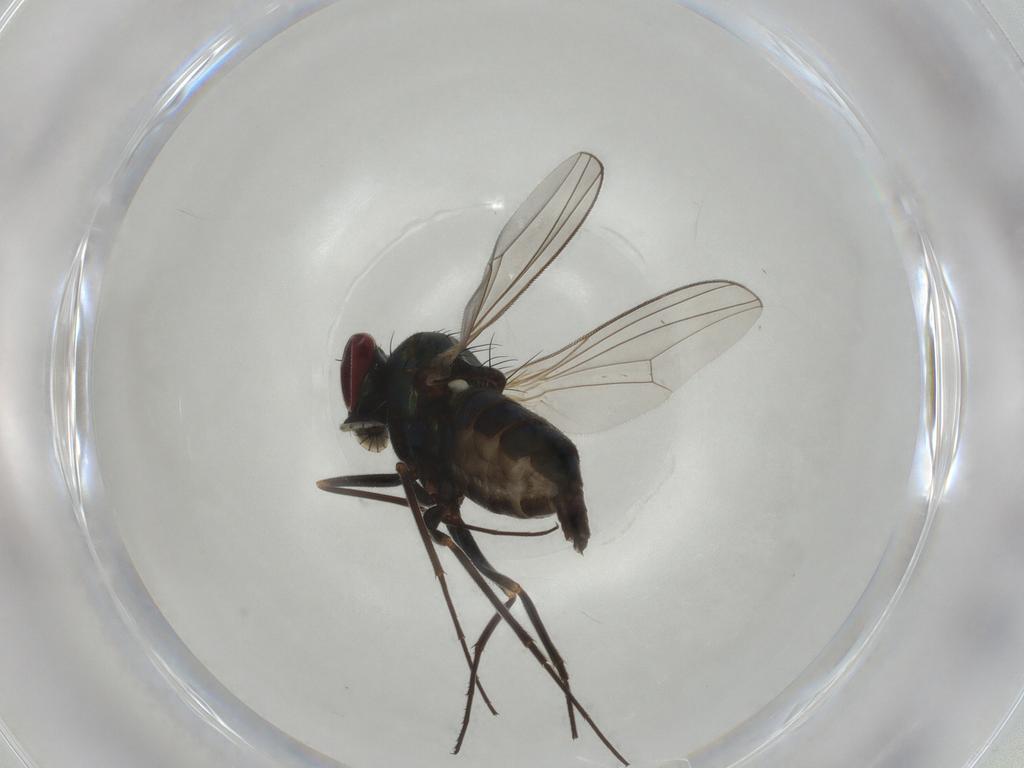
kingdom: Animalia
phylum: Arthropoda
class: Insecta
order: Diptera
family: Dolichopodidae
